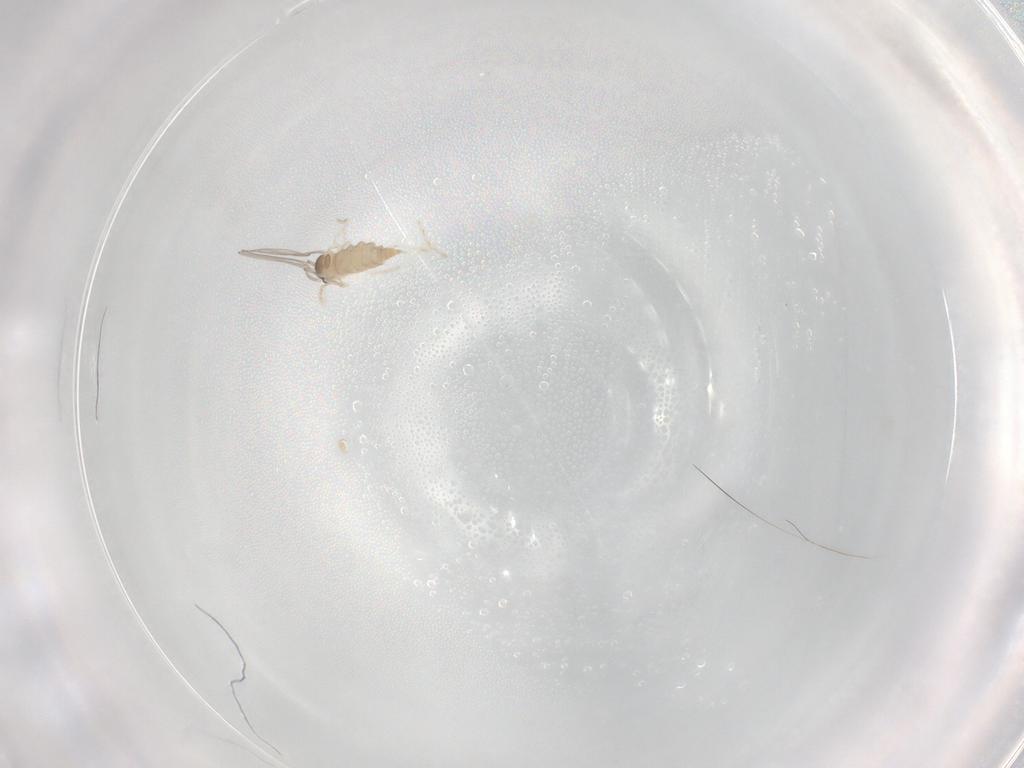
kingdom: Animalia
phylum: Arthropoda
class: Insecta
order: Diptera
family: Cecidomyiidae
